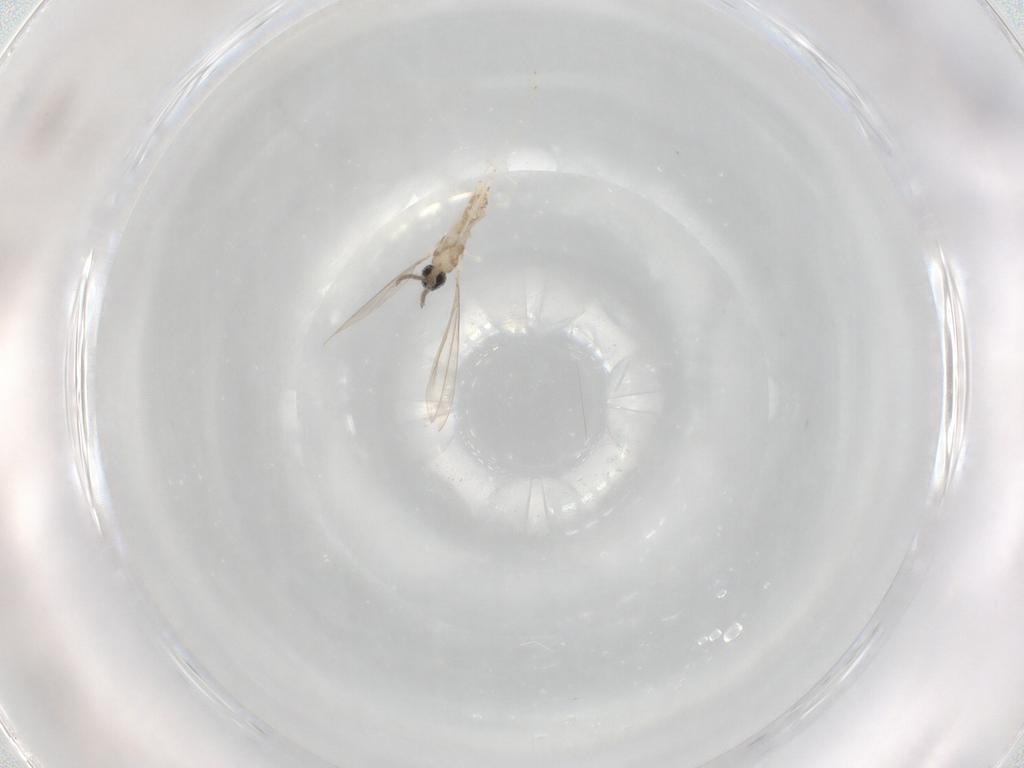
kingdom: Animalia
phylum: Arthropoda
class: Insecta
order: Diptera
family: Cecidomyiidae
